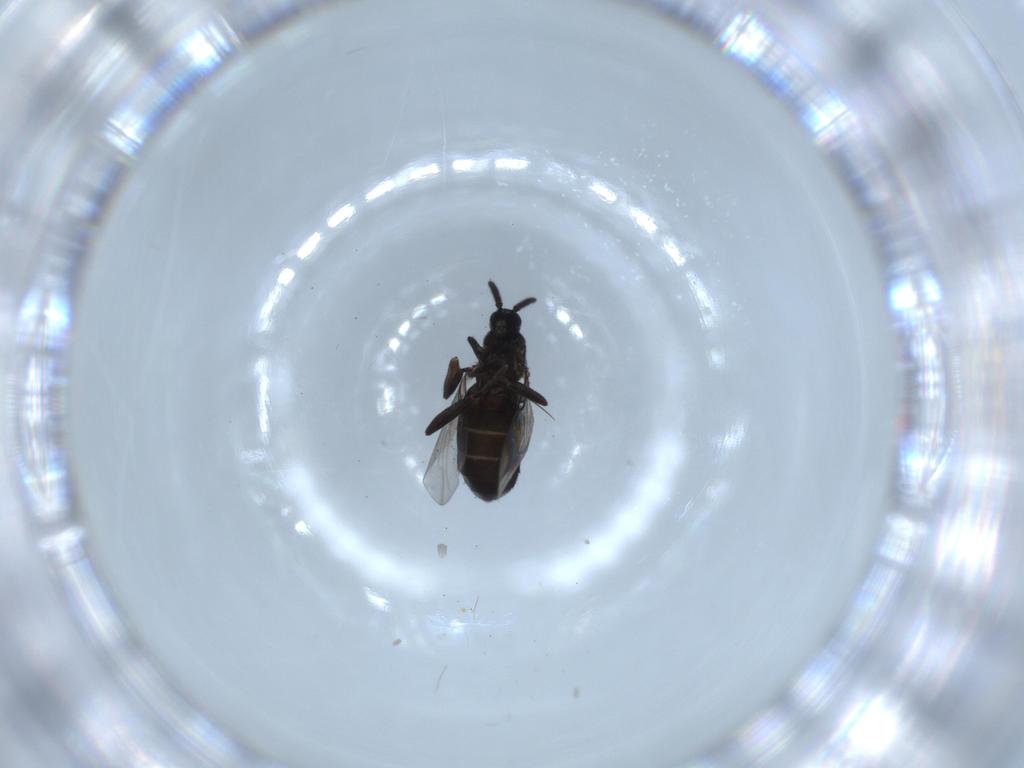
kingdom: Animalia
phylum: Arthropoda
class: Insecta
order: Diptera
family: Scatopsidae
